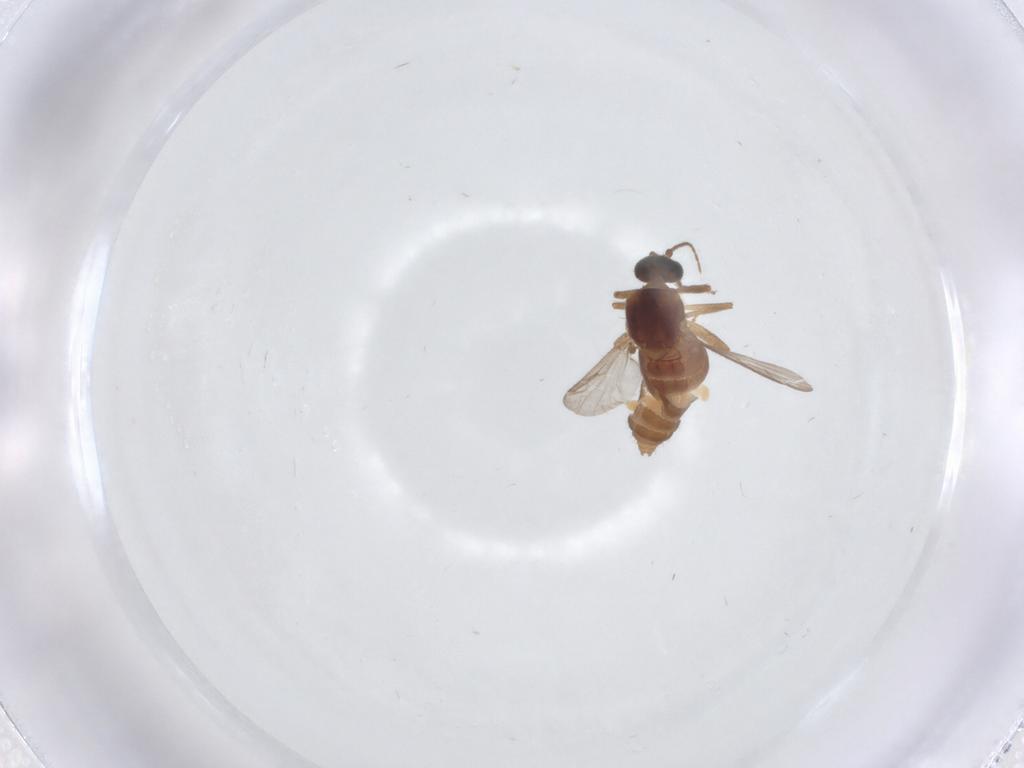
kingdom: Animalia
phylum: Arthropoda
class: Insecta
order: Diptera
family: Cecidomyiidae
